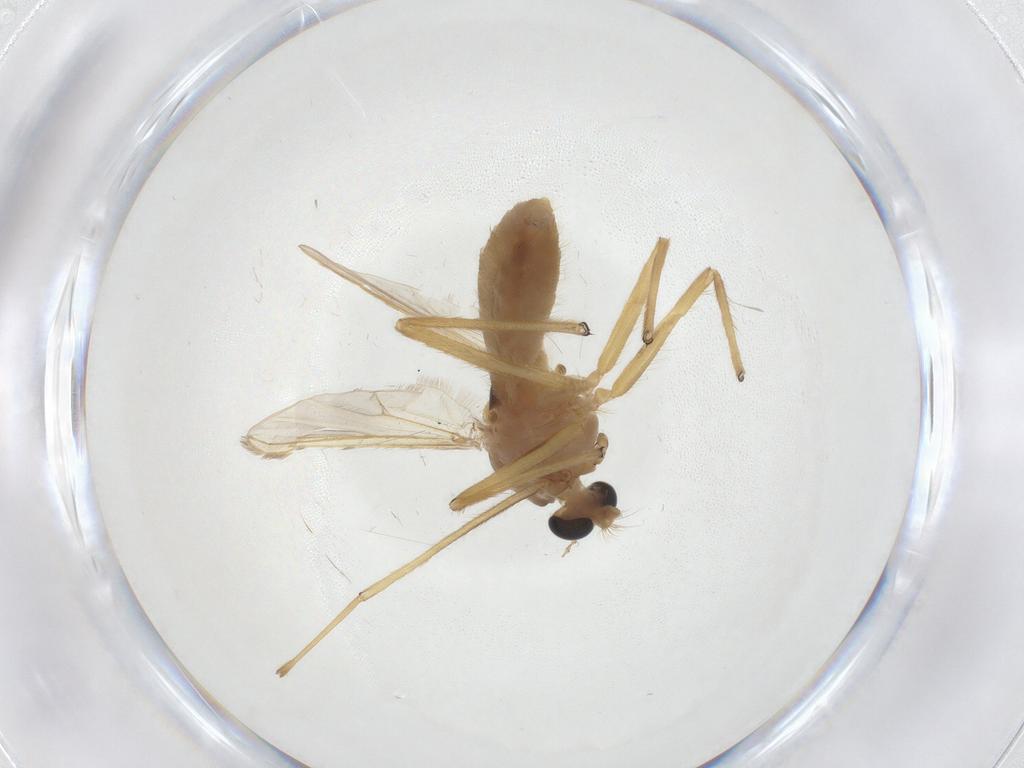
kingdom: Animalia
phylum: Arthropoda
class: Insecta
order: Diptera
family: Chironomidae
